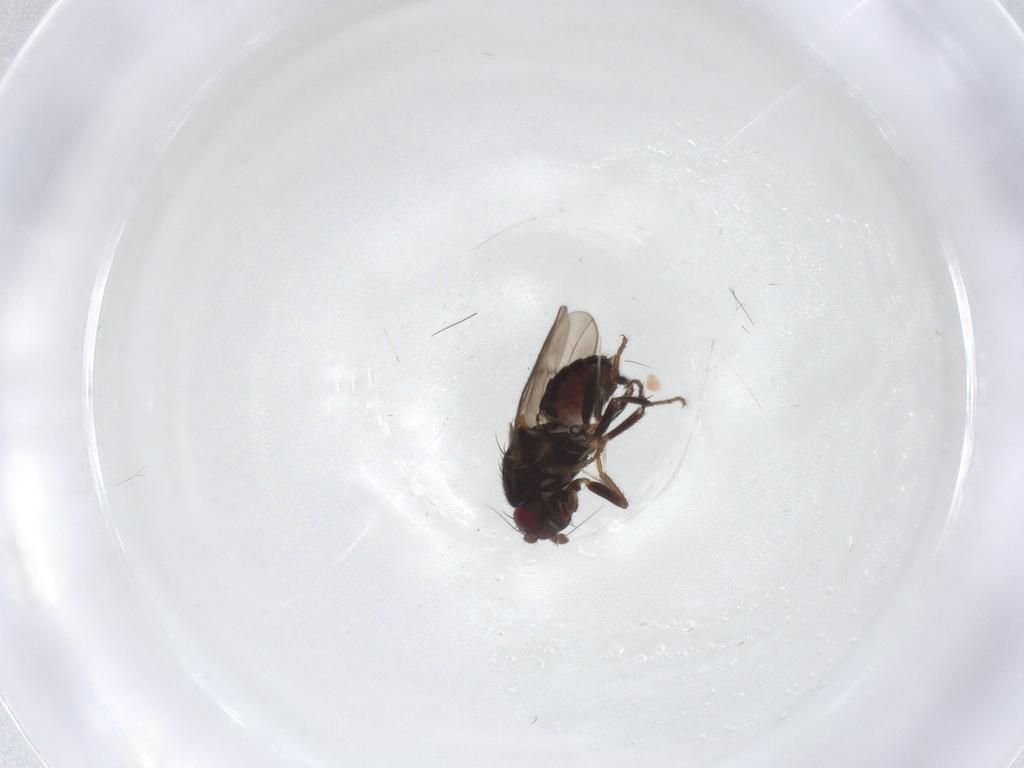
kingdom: Animalia
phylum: Arthropoda
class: Insecta
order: Diptera
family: Sphaeroceridae
